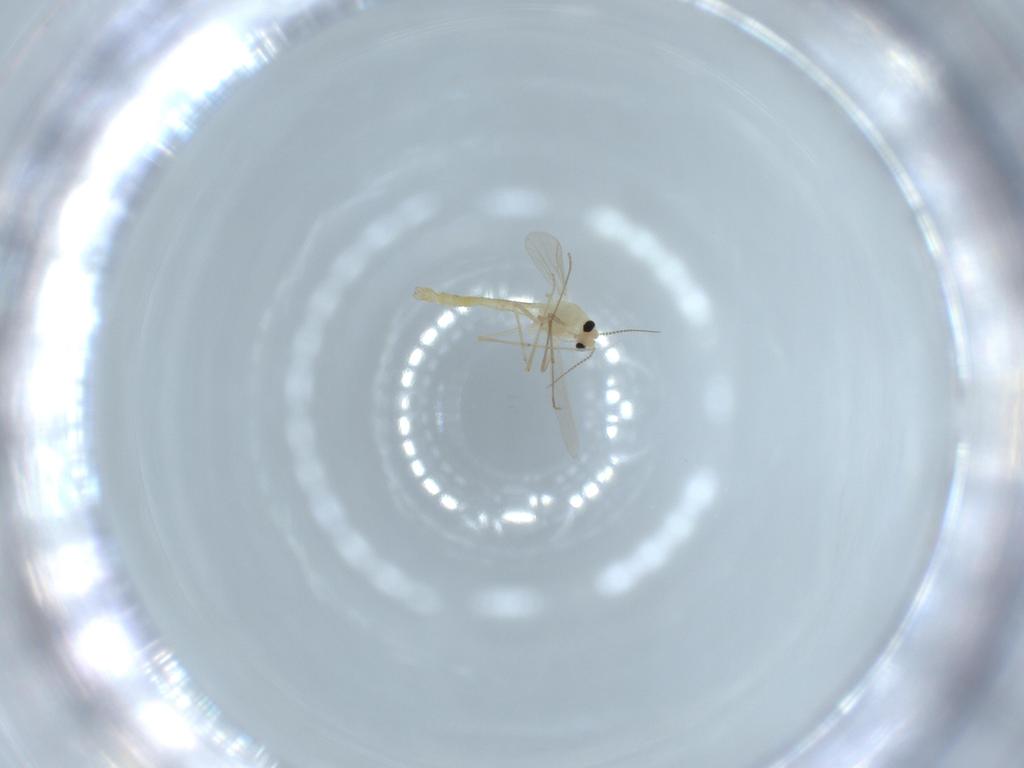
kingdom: Animalia
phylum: Arthropoda
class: Insecta
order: Diptera
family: Chironomidae
